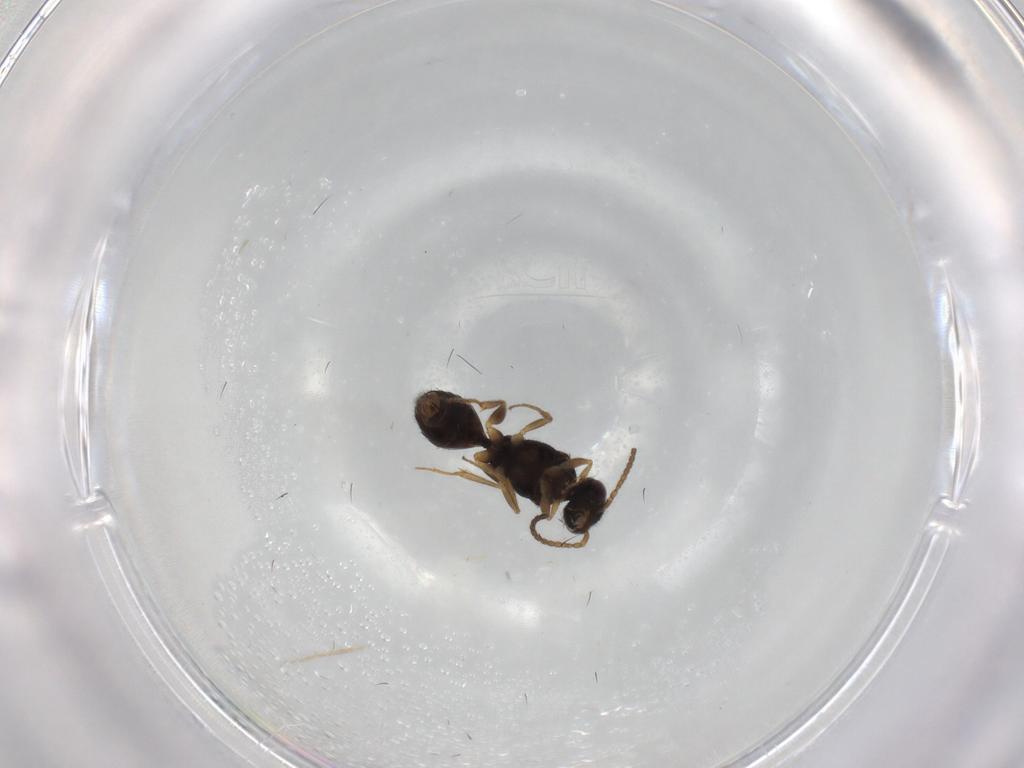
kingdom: Animalia
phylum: Arthropoda
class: Insecta
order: Hymenoptera
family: Bethylidae
